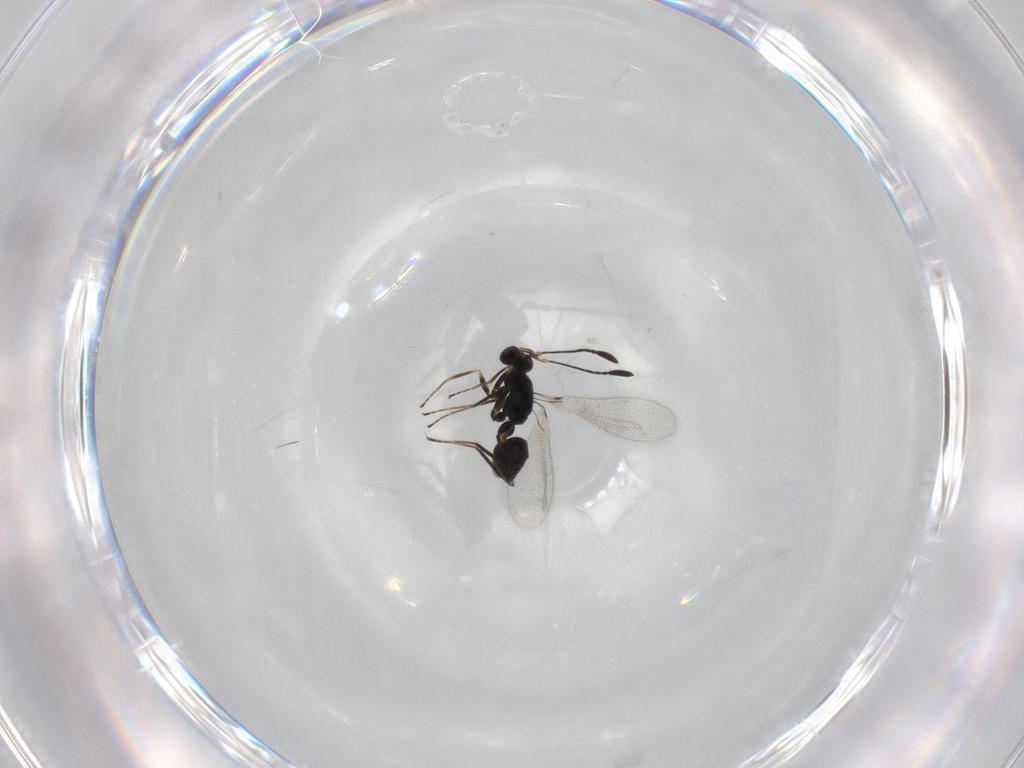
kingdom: Animalia
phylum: Arthropoda
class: Insecta
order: Hymenoptera
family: Mymaridae
